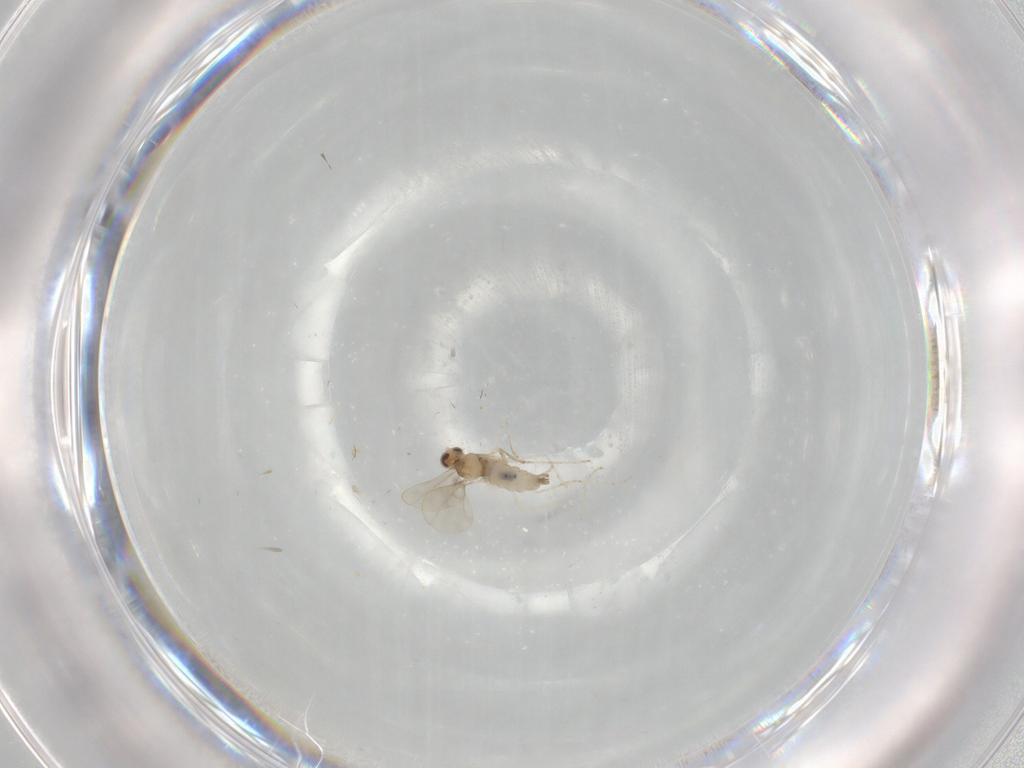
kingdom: Animalia
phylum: Arthropoda
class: Insecta
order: Diptera
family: Cecidomyiidae
